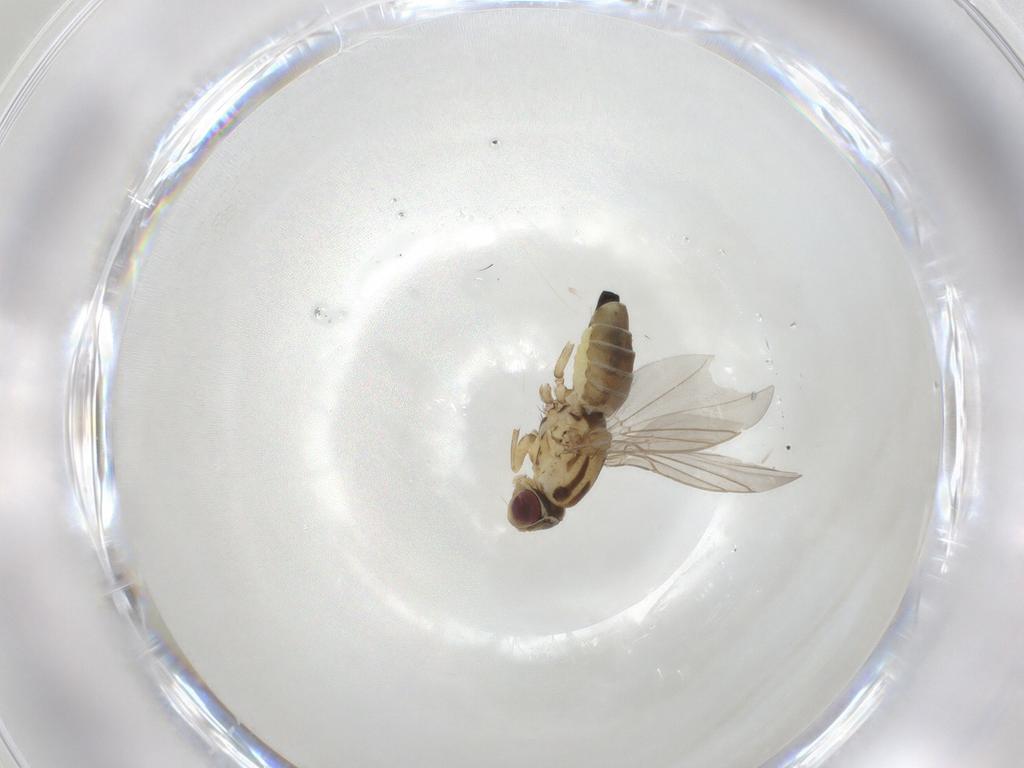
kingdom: Animalia
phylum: Arthropoda
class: Insecta
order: Diptera
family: Agromyzidae
